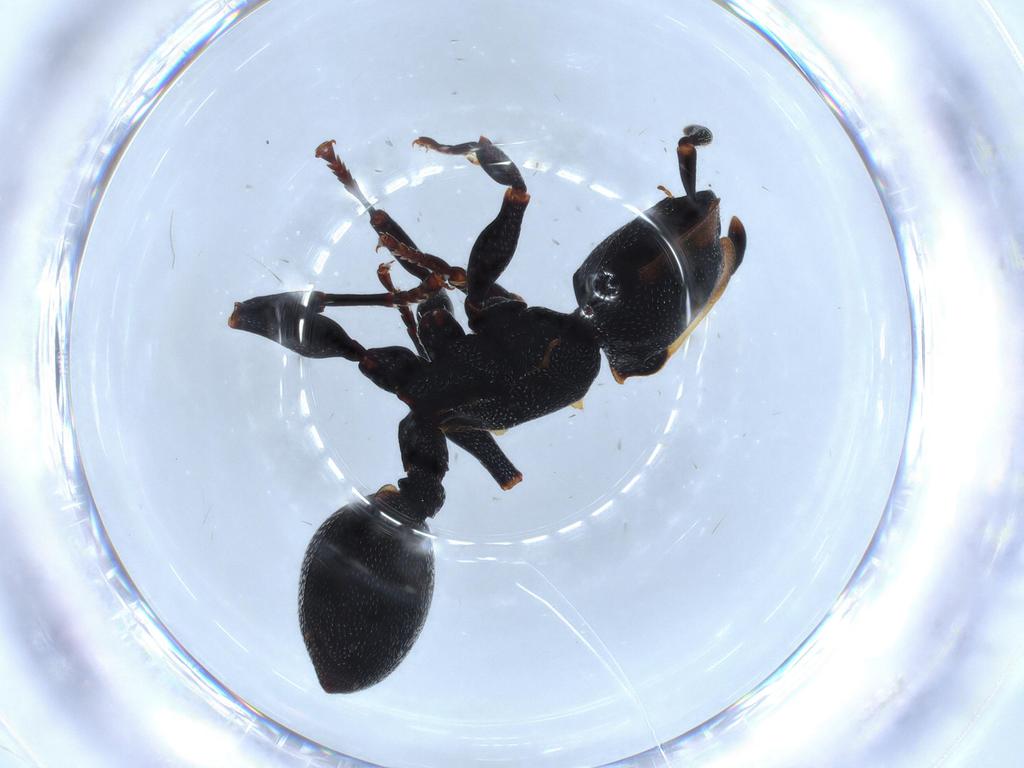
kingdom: Animalia
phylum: Arthropoda
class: Insecta
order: Hymenoptera
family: Formicidae
